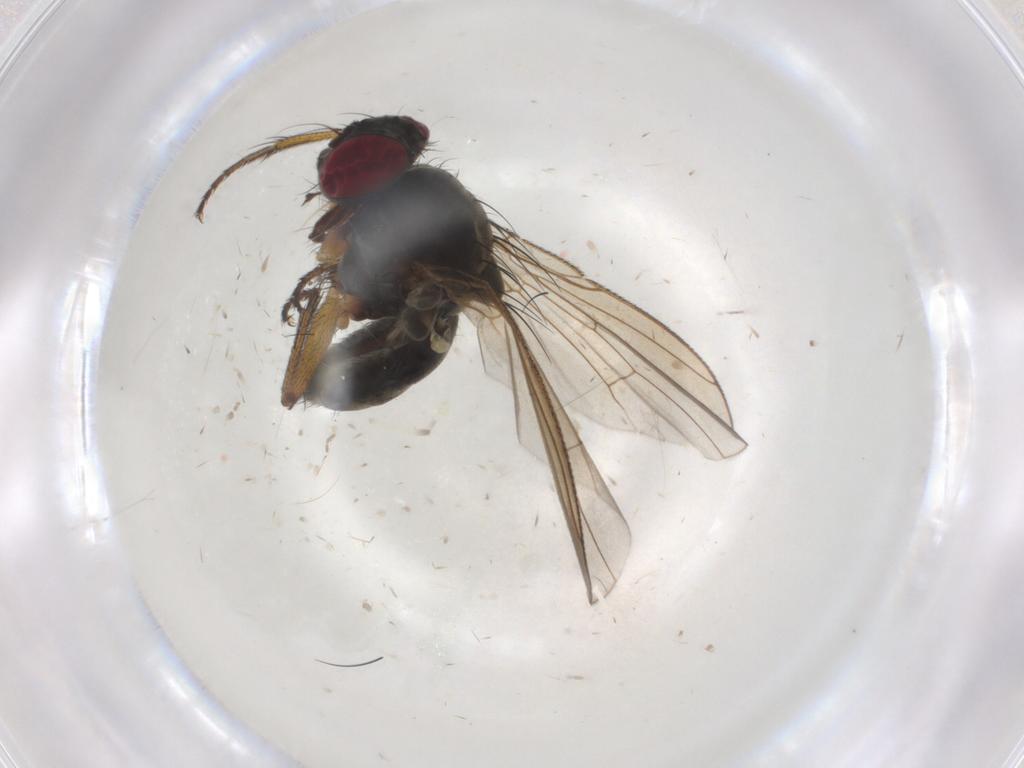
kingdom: Animalia
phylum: Arthropoda
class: Insecta
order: Diptera
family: Muscidae
